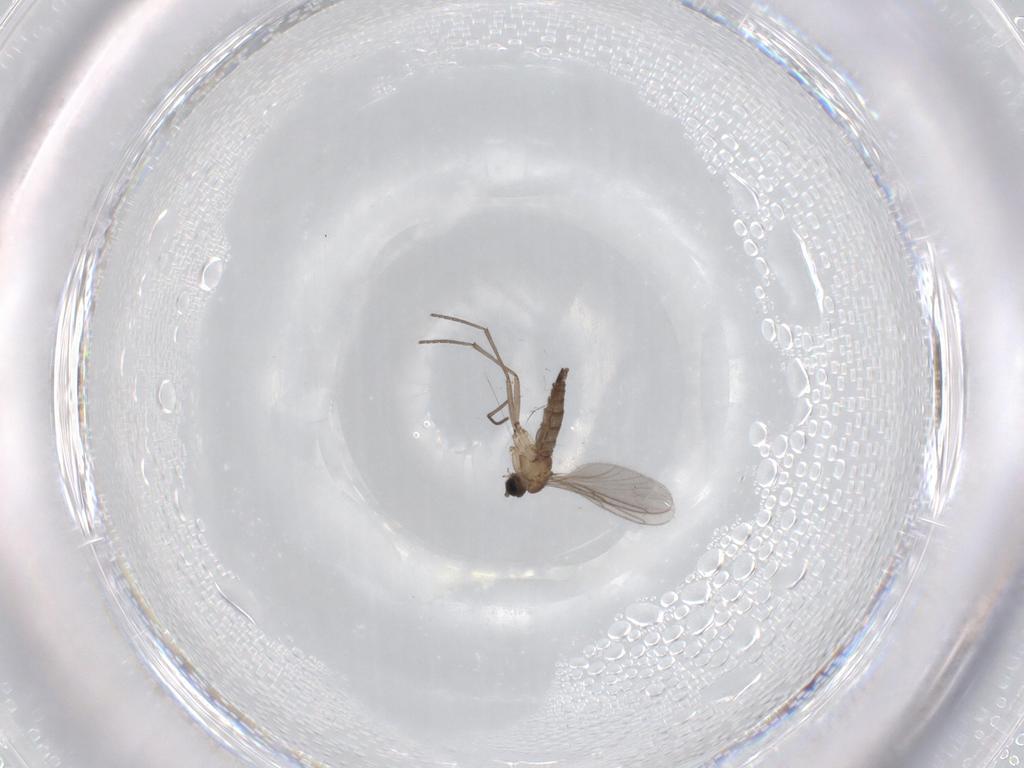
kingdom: Animalia
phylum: Arthropoda
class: Insecta
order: Diptera
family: Sciaridae
